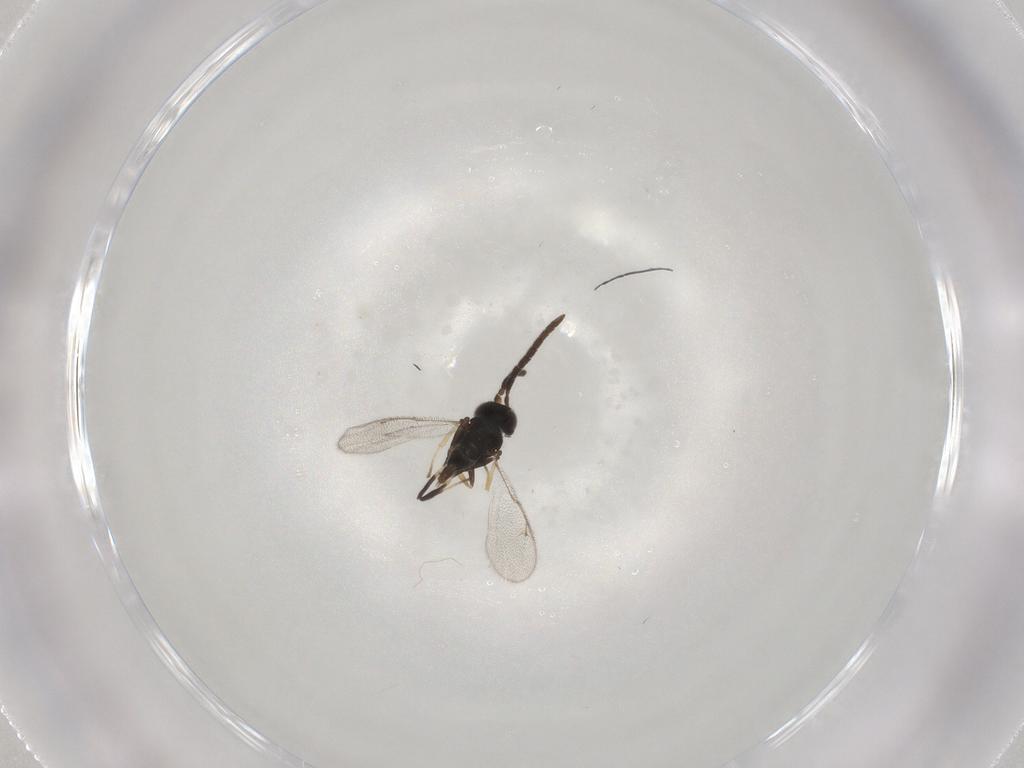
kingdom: Animalia
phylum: Arthropoda
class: Insecta
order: Hymenoptera
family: Eupelmidae
